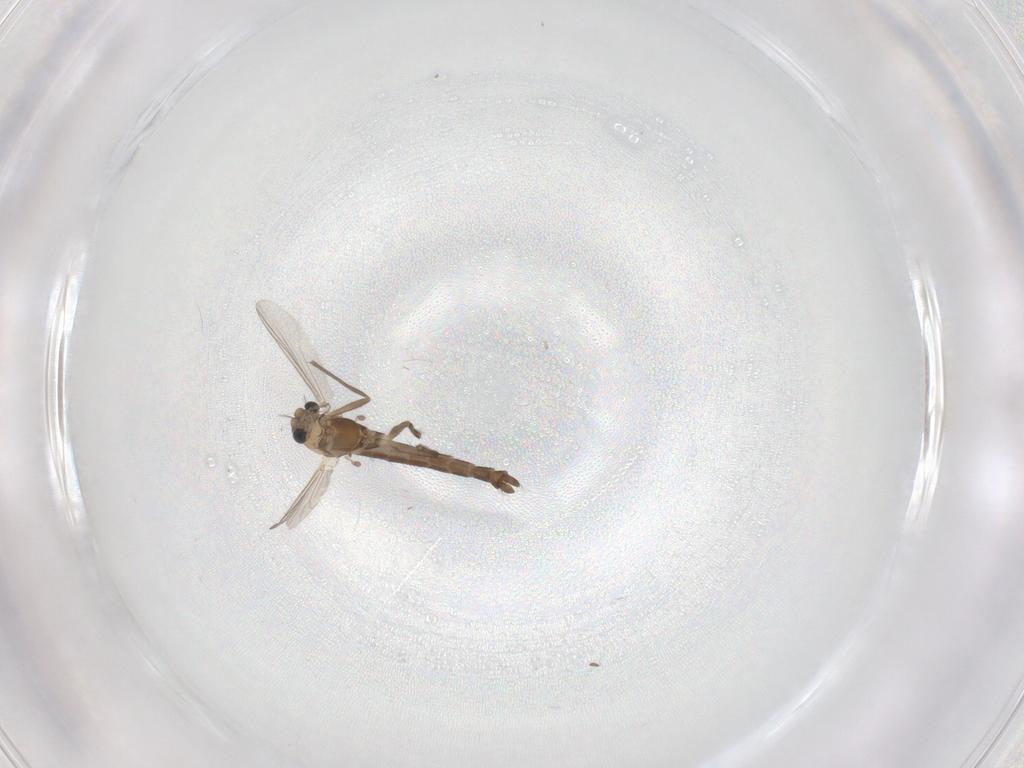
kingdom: Animalia
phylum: Arthropoda
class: Insecta
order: Diptera
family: Chironomidae
